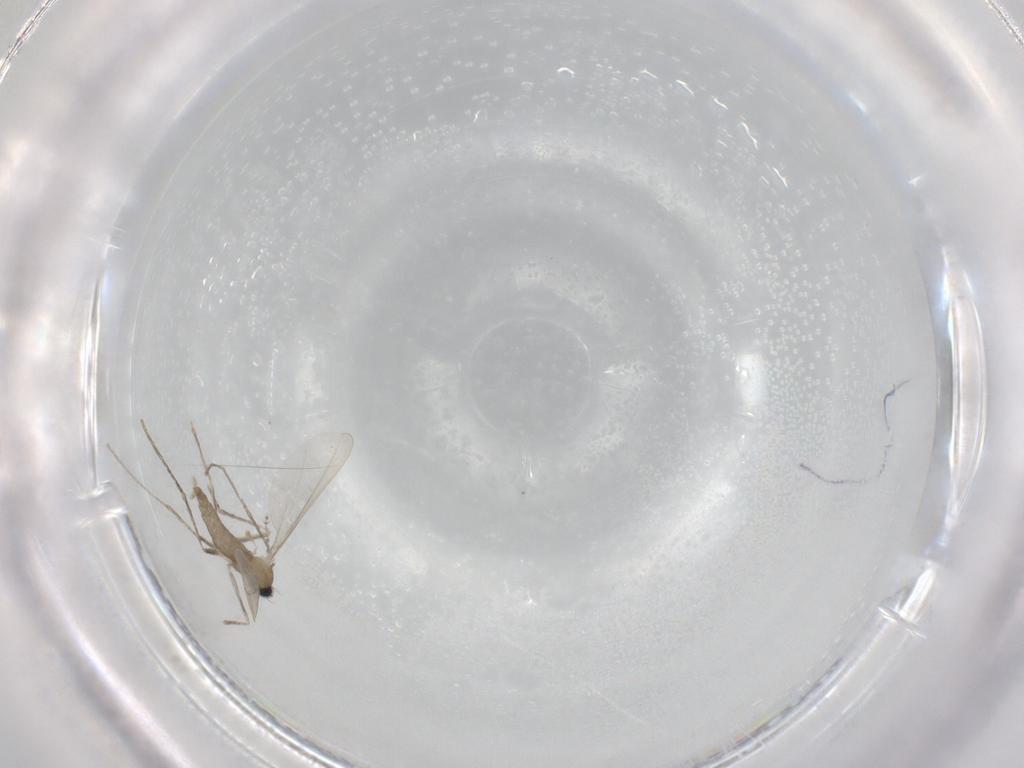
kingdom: Animalia
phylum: Arthropoda
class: Insecta
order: Diptera
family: Cecidomyiidae
